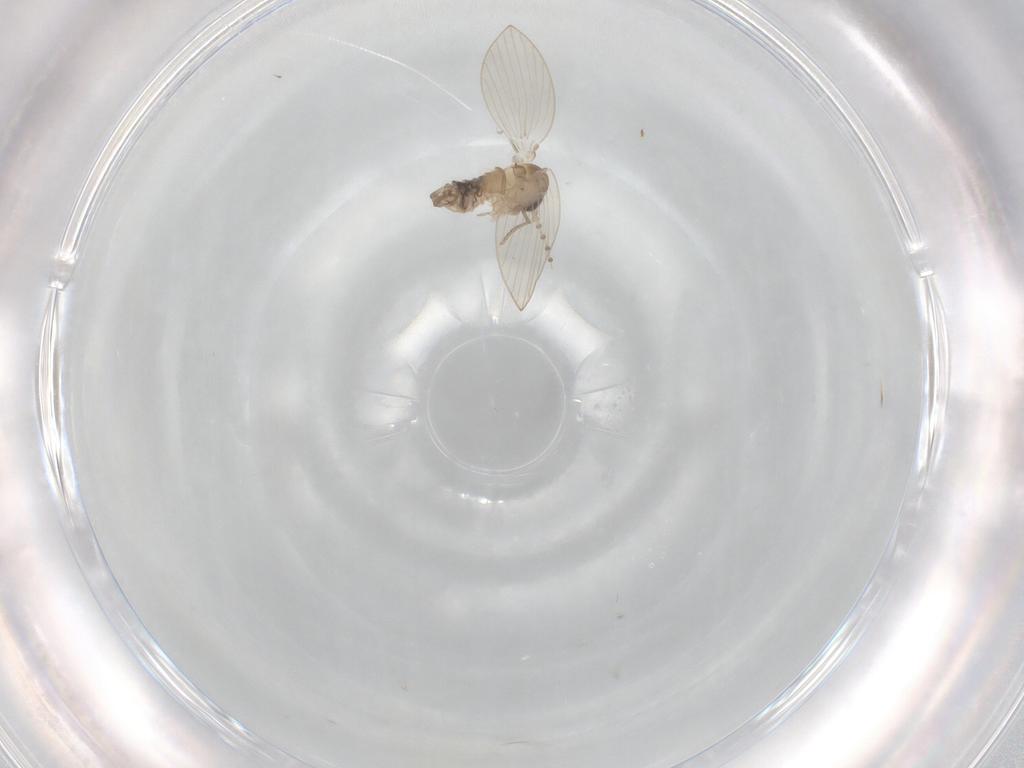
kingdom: Animalia
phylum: Arthropoda
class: Insecta
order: Diptera
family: Psychodidae
